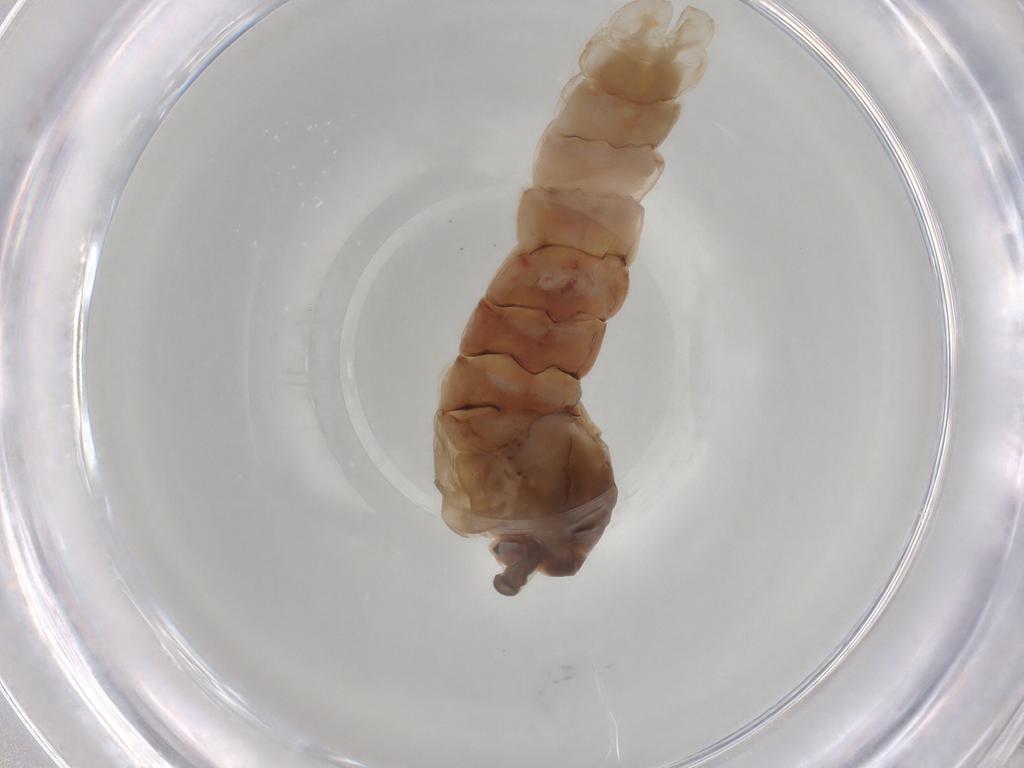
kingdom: Animalia
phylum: Arthropoda
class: Insecta
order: Diptera
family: Chironomidae
